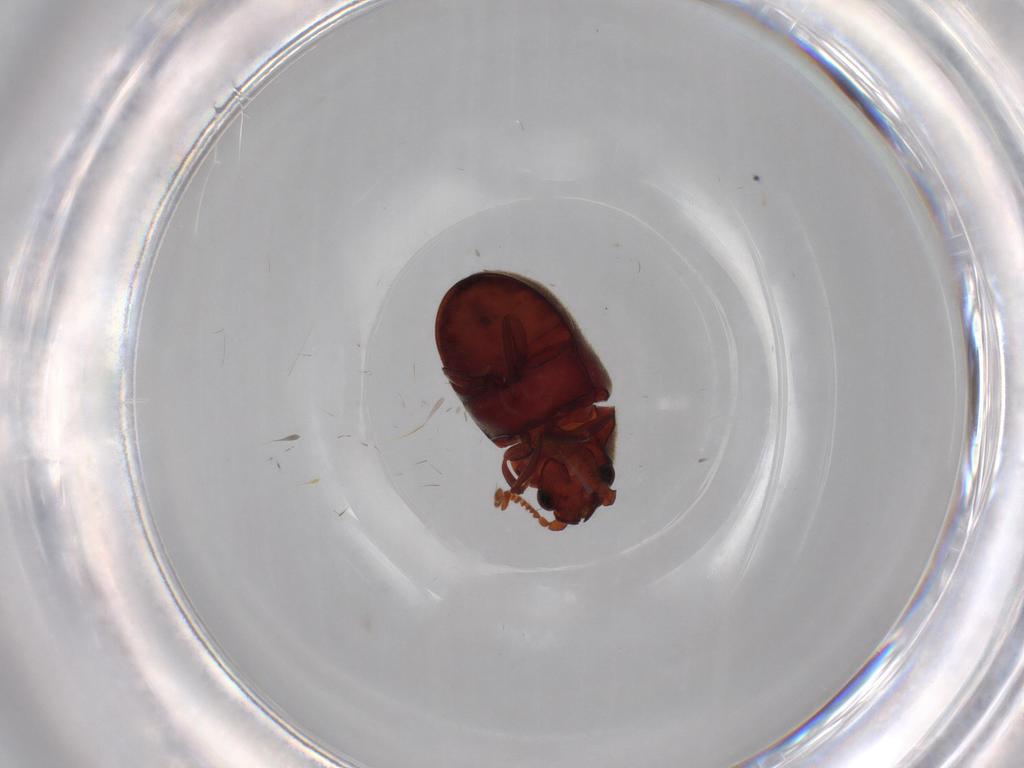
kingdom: Animalia
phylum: Arthropoda
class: Insecta
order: Coleoptera
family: Scarabaeidae
